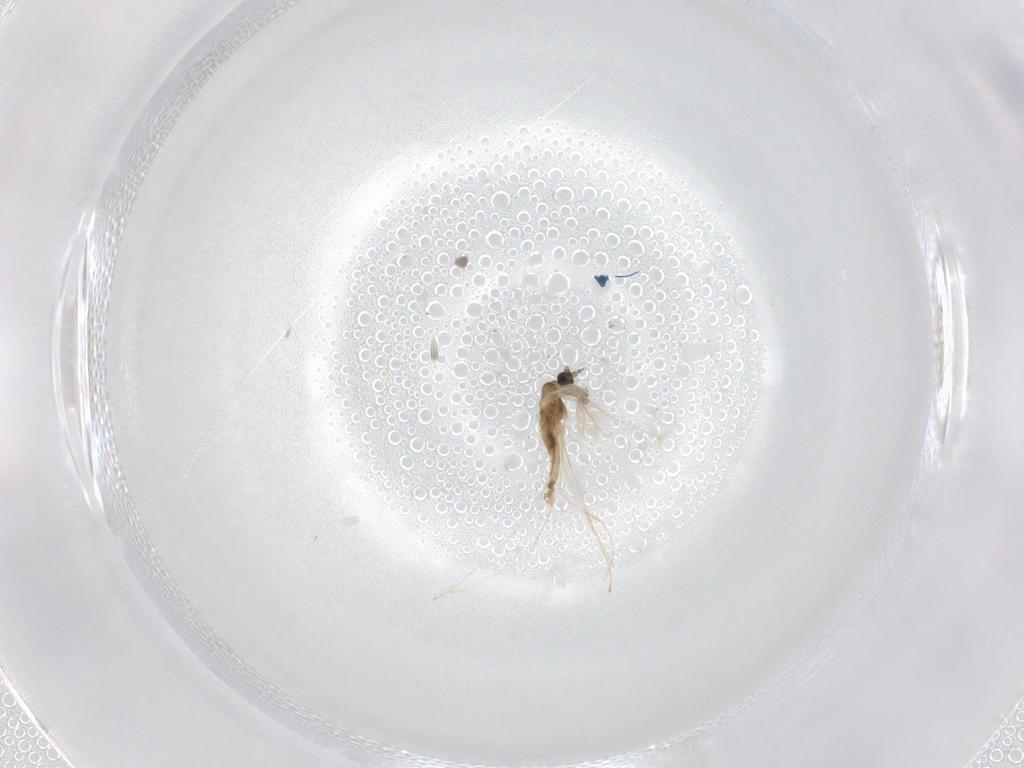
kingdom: Animalia
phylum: Arthropoda
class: Insecta
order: Diptera
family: Cecidomyiidae
